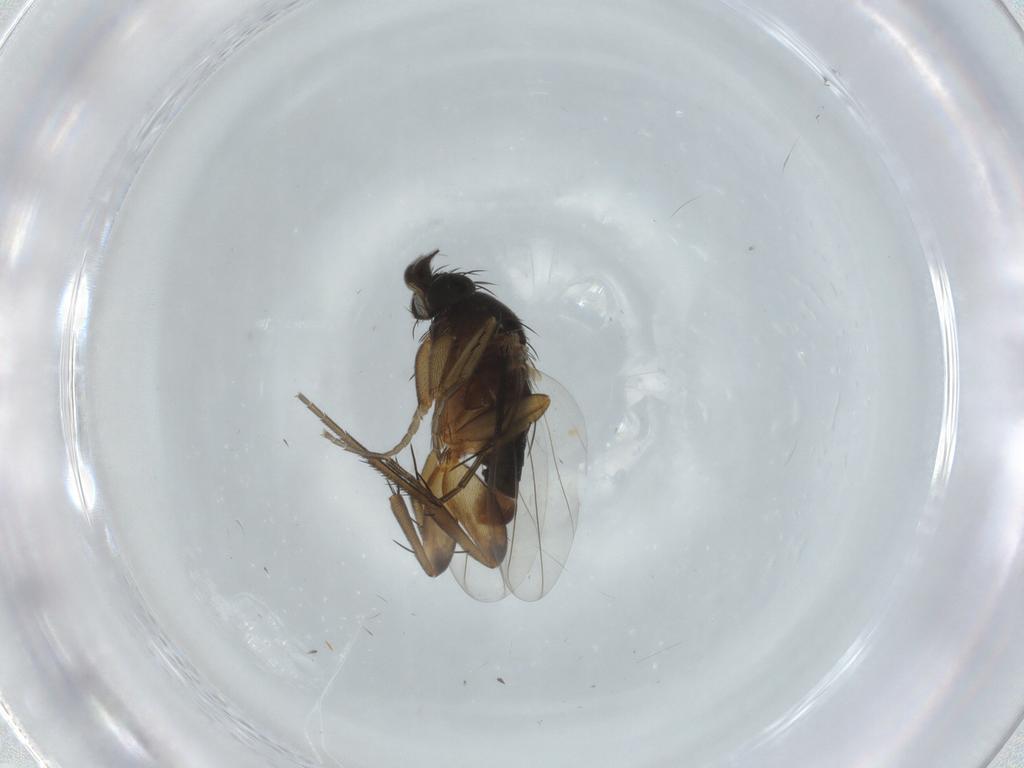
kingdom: Animalia
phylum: Arthropoda
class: Insecta
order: Diptera
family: Phoridae
